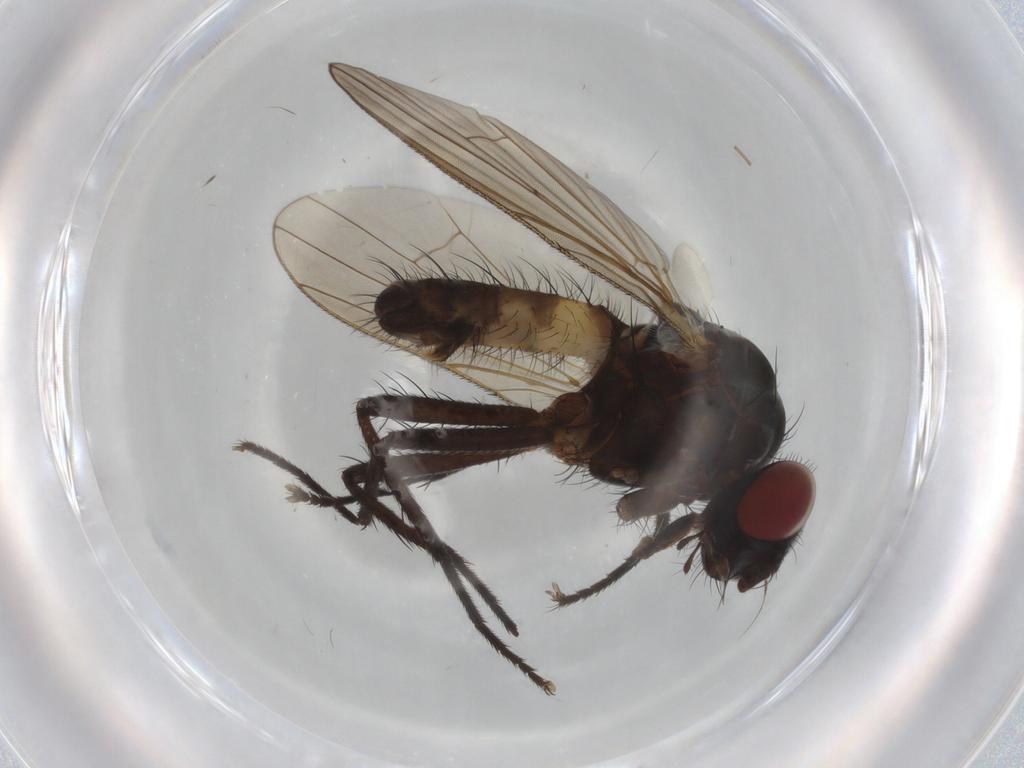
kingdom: Animalia
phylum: Arthropoda
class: Insecta
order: Diptera
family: Anthomyiidae
